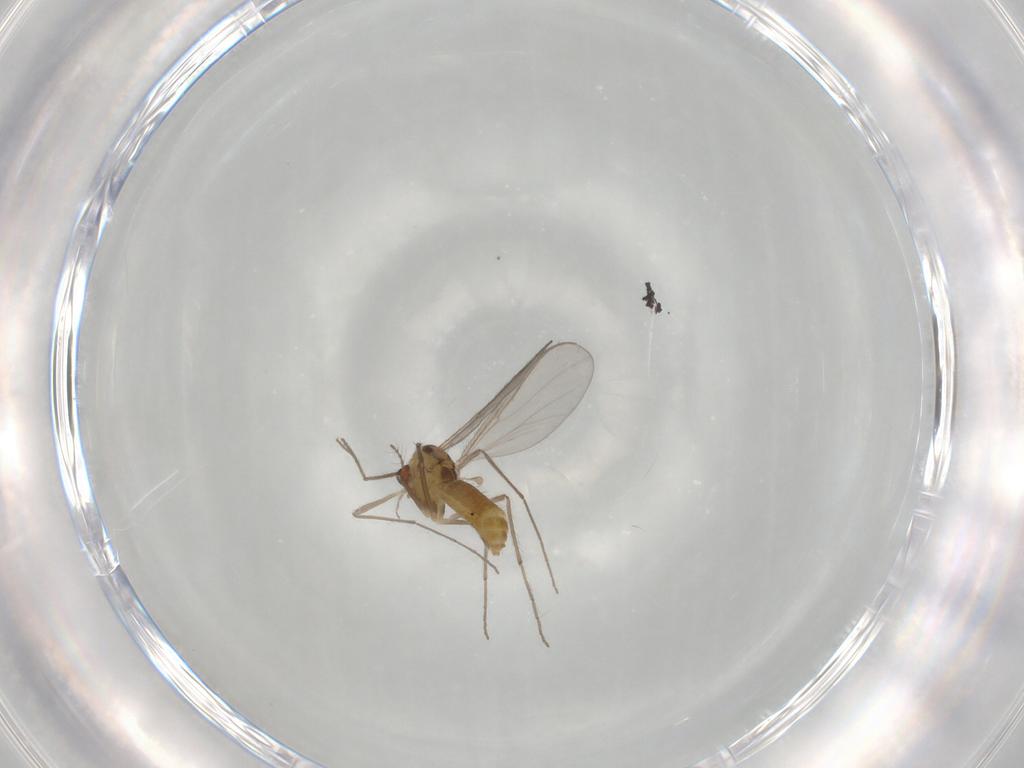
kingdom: Animalia
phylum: Arthropoda
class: Insecta
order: Diptera
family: Chironomidae
